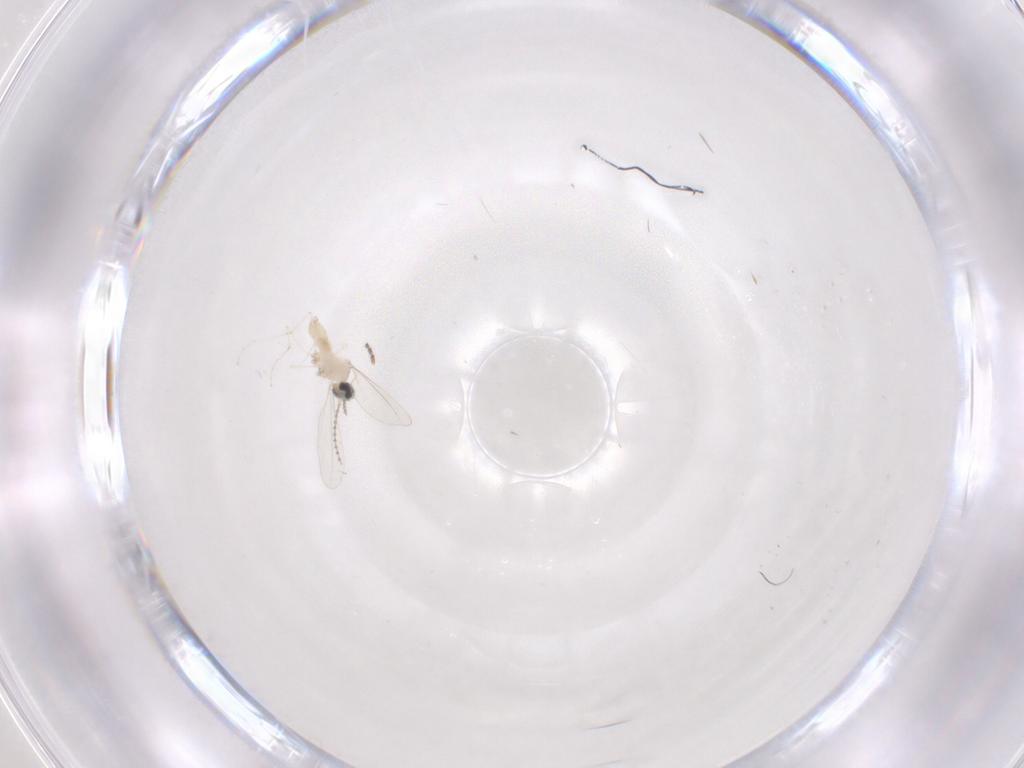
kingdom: Animalia
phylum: Arthropoda
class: Insecta
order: Diptera
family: Cecidomyiidae
